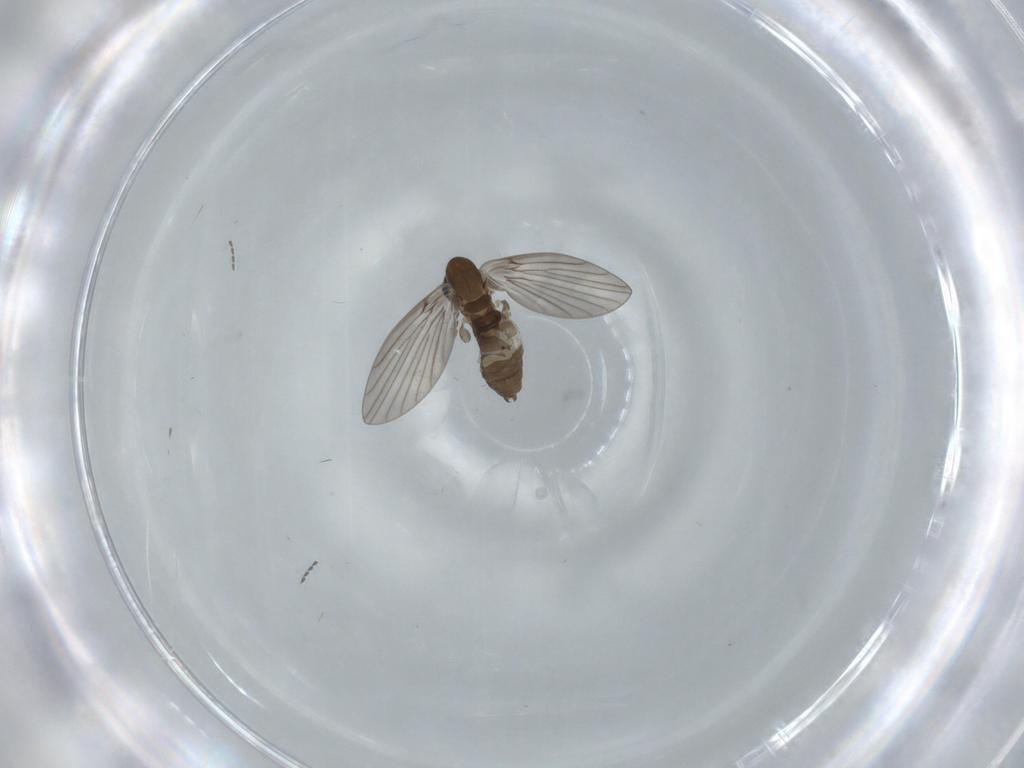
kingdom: Animalia
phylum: Arthropoda
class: Insecta
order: Diptera
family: Psychodidae
